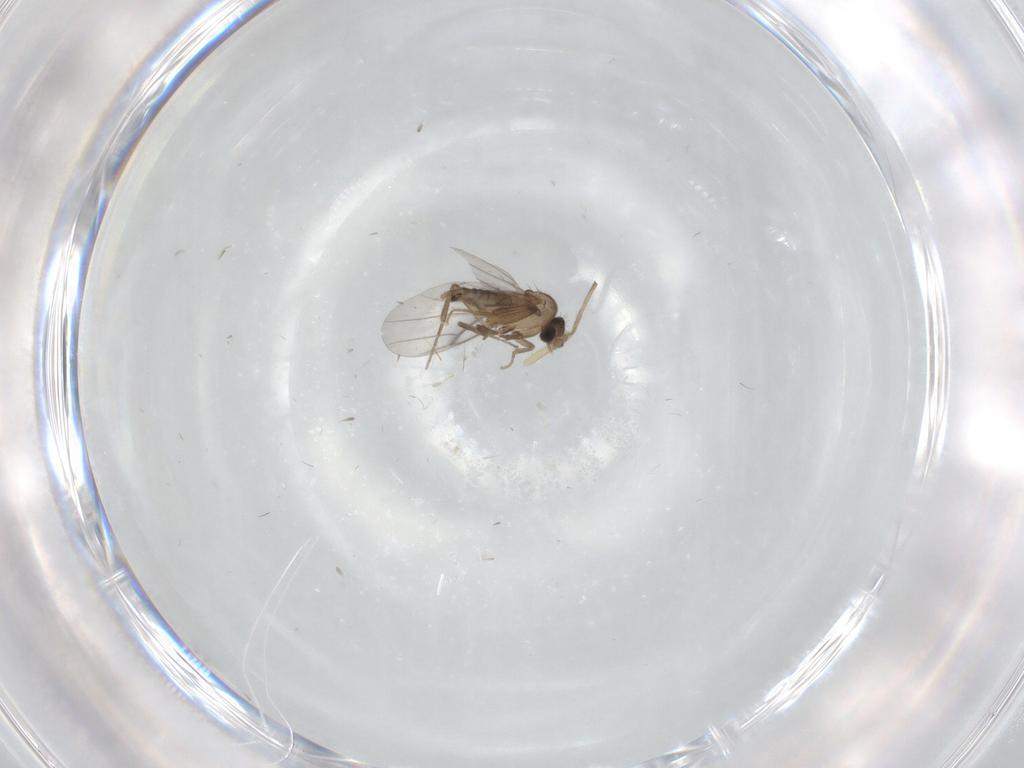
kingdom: Animalia
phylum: Arthropoda
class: Insecta
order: Diptera
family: Chironomidae
